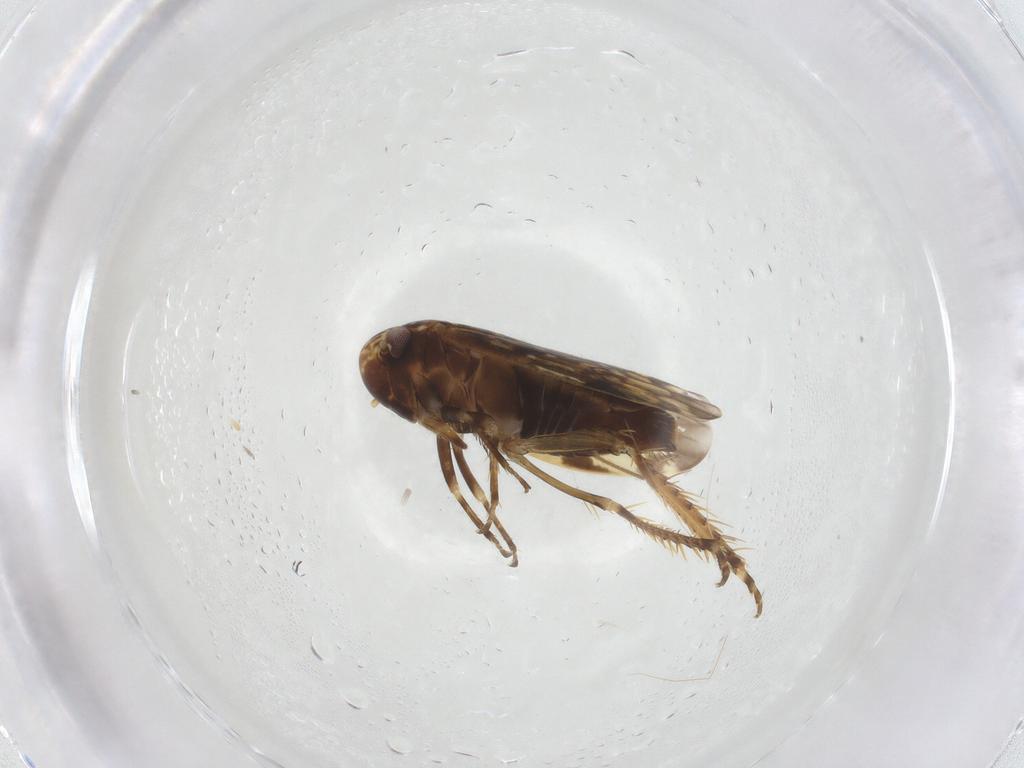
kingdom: Animalia
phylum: Arthropoda
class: Insecta
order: Hemiptera
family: Cicadellidae
